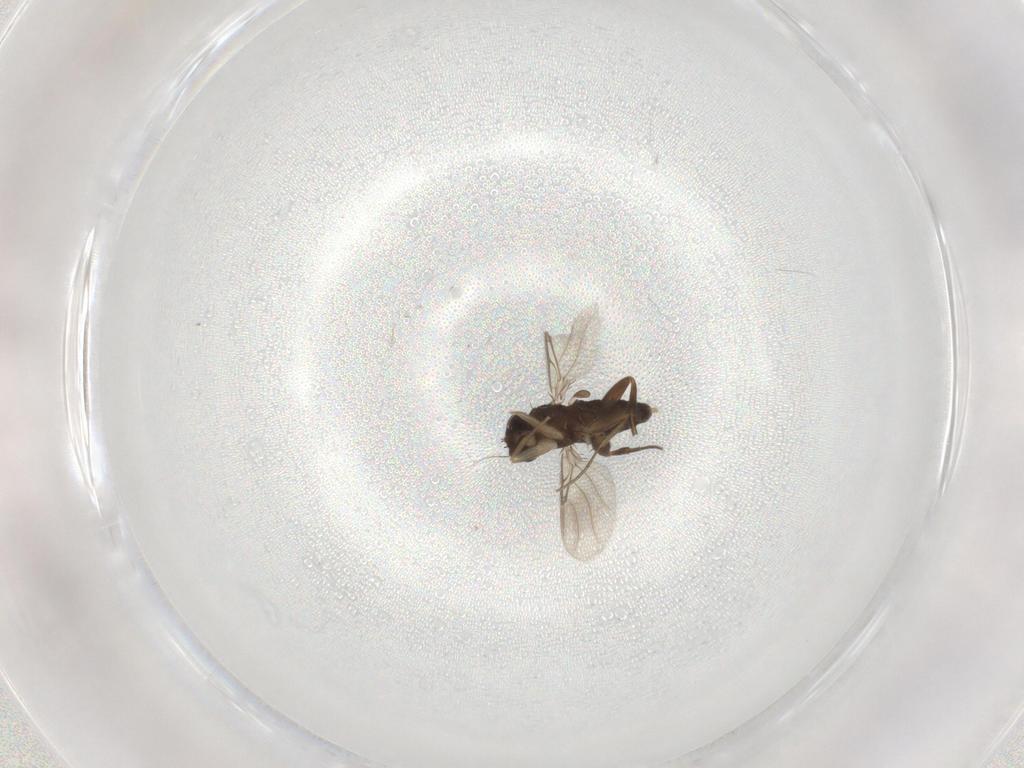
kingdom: Animalia
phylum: Arthropoda
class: Insecta
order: Diptera
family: Phoridae
